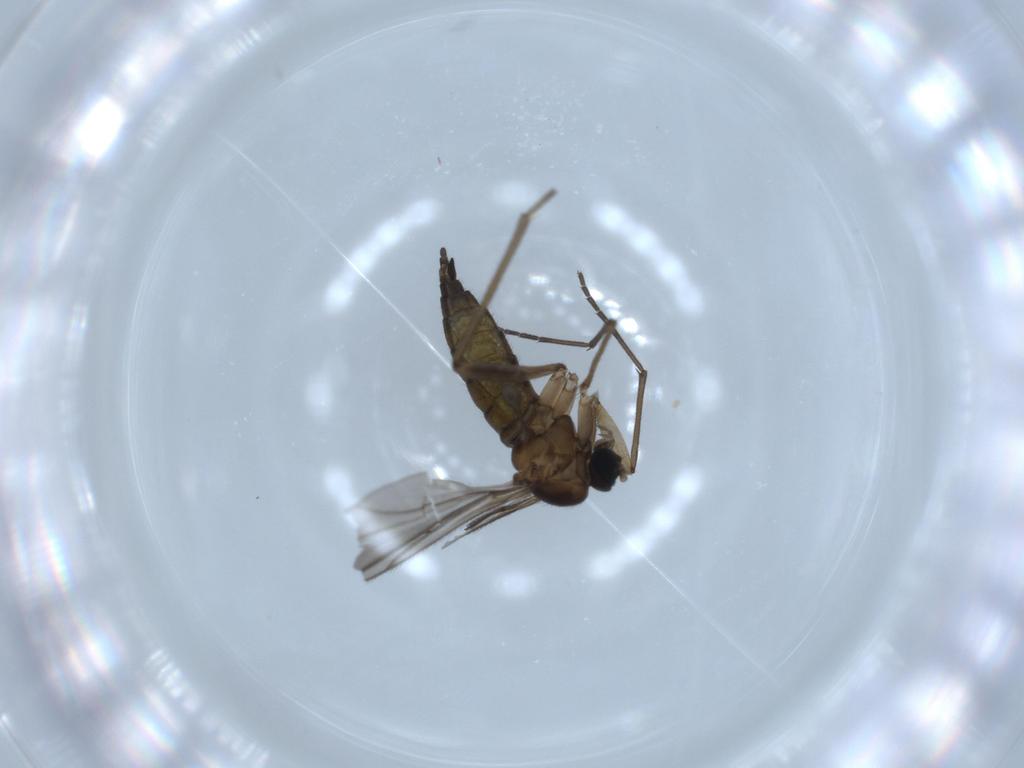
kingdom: Animalia
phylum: Arthropoda
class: Insecta
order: Diptera
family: Sciaridae
